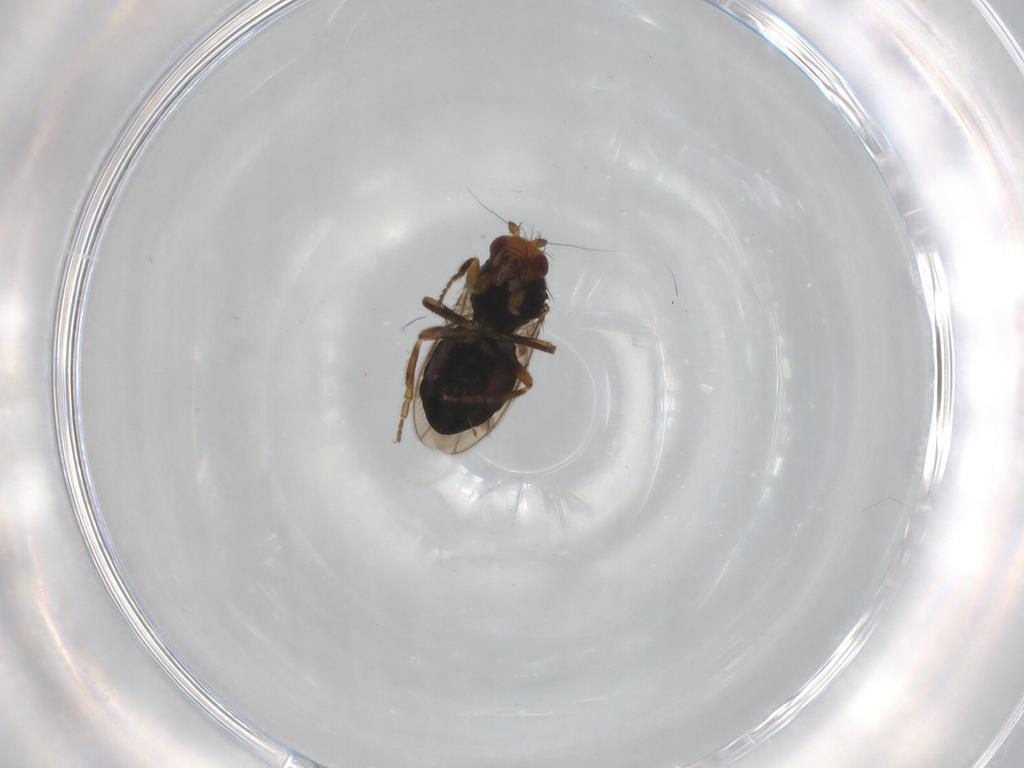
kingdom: Animalia
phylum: Arthropoda
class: Insecta
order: Diptera
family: Sphaeroceridae
